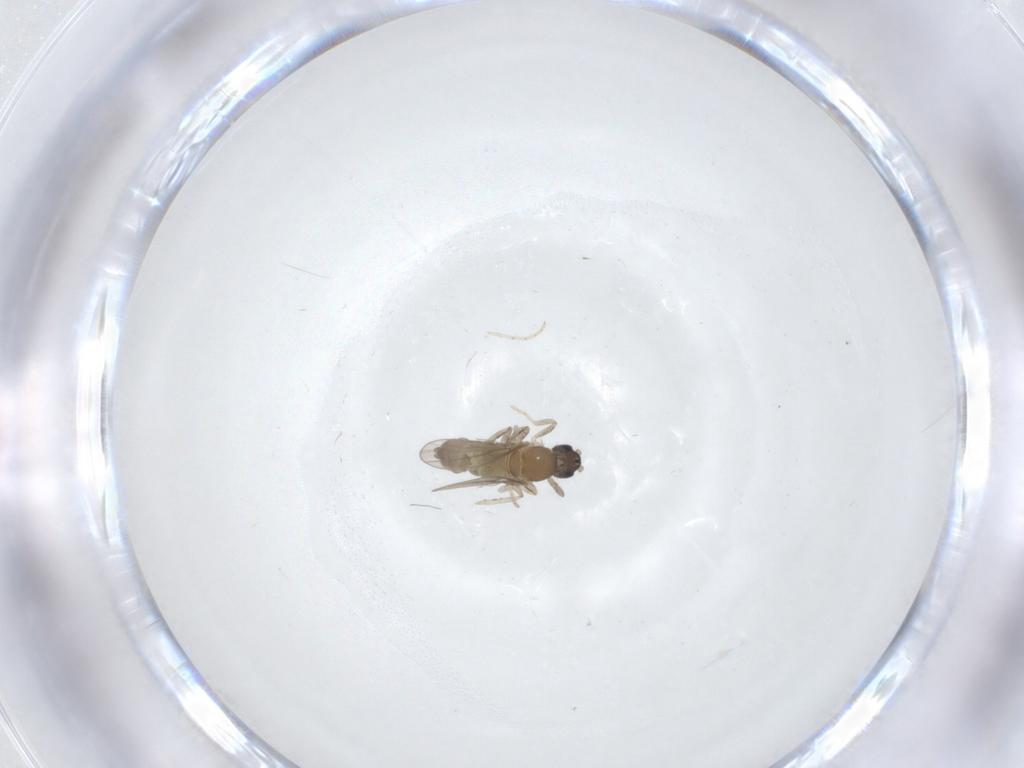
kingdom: Animalia
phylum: Arthropoda
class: Insecta
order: Diptera
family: Cecidomyiidae
